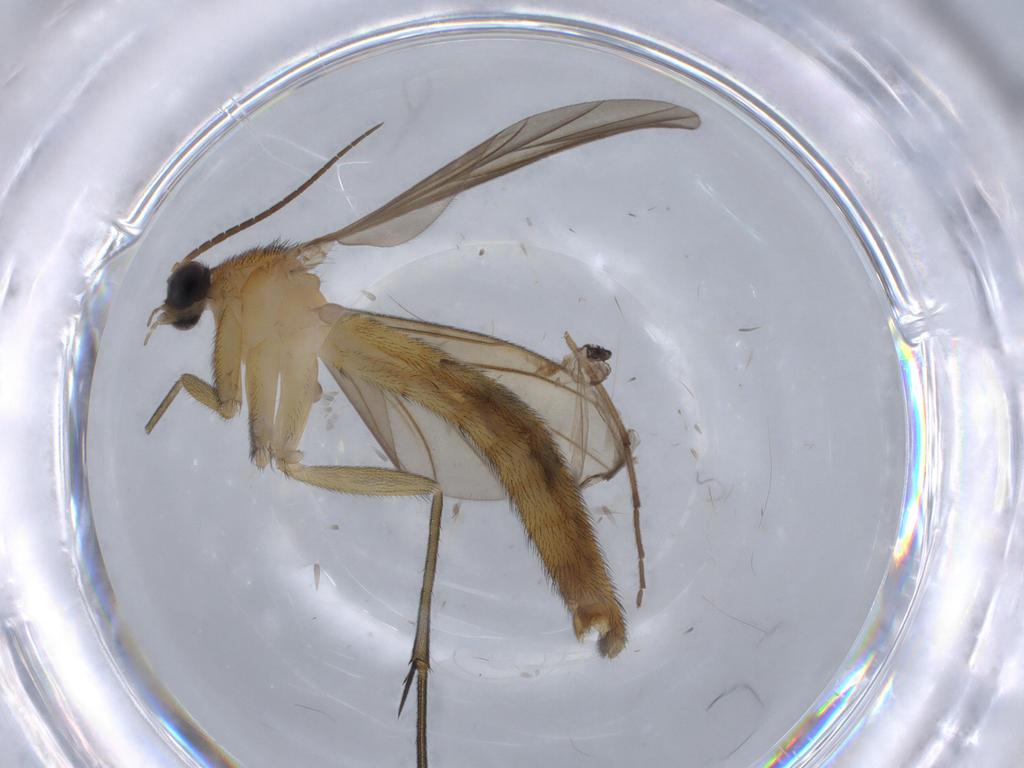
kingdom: Animalia
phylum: Arthropoda
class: Insecta
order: Diptera
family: Ceratopogonidae
